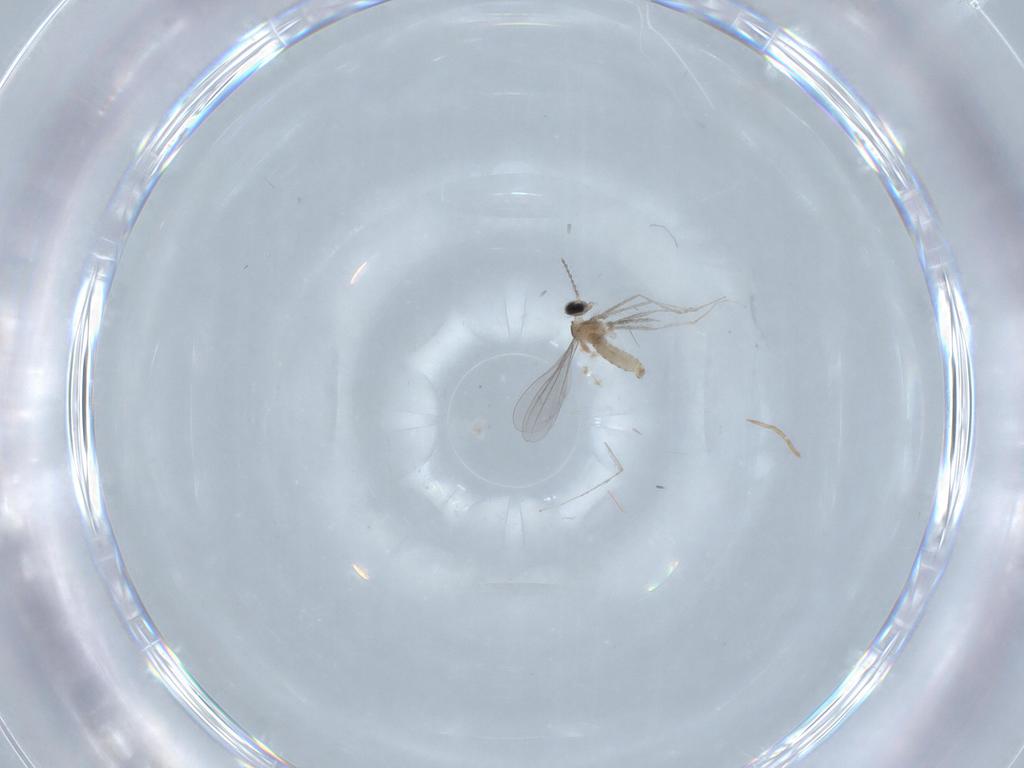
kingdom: Animalia
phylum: Arthropoda
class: Insecta
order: Diptera
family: Cecidomyiidae
